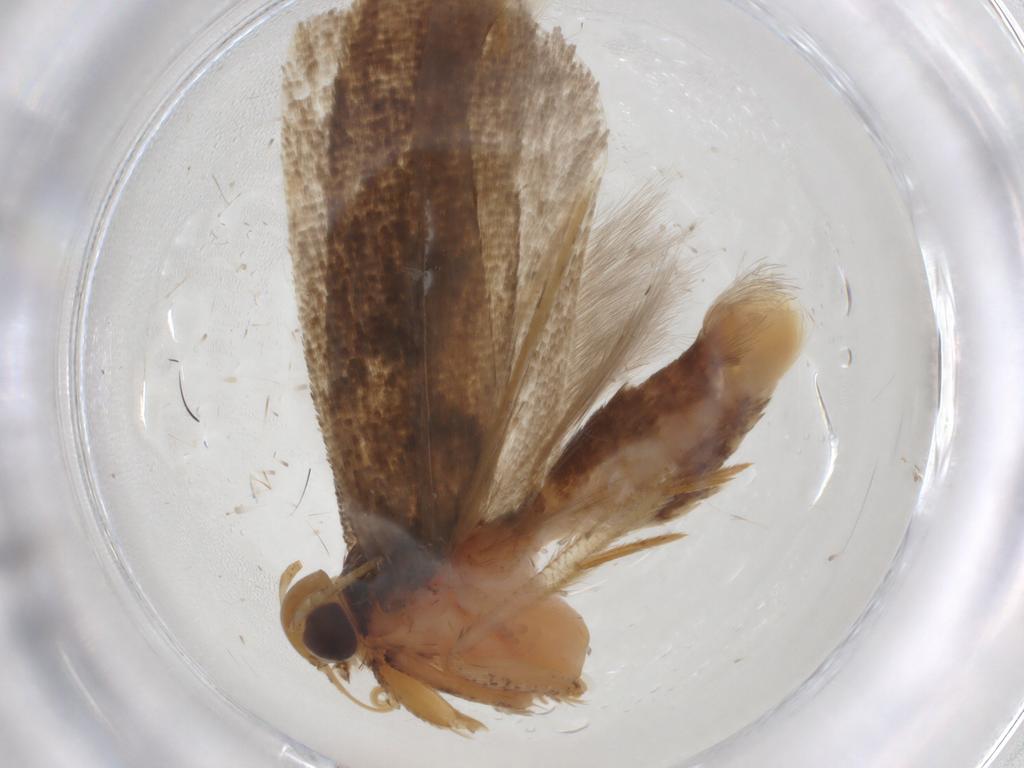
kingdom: Animalia
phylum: Arthropoda
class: Insecta
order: Lepidoptera
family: Gelechiidae
